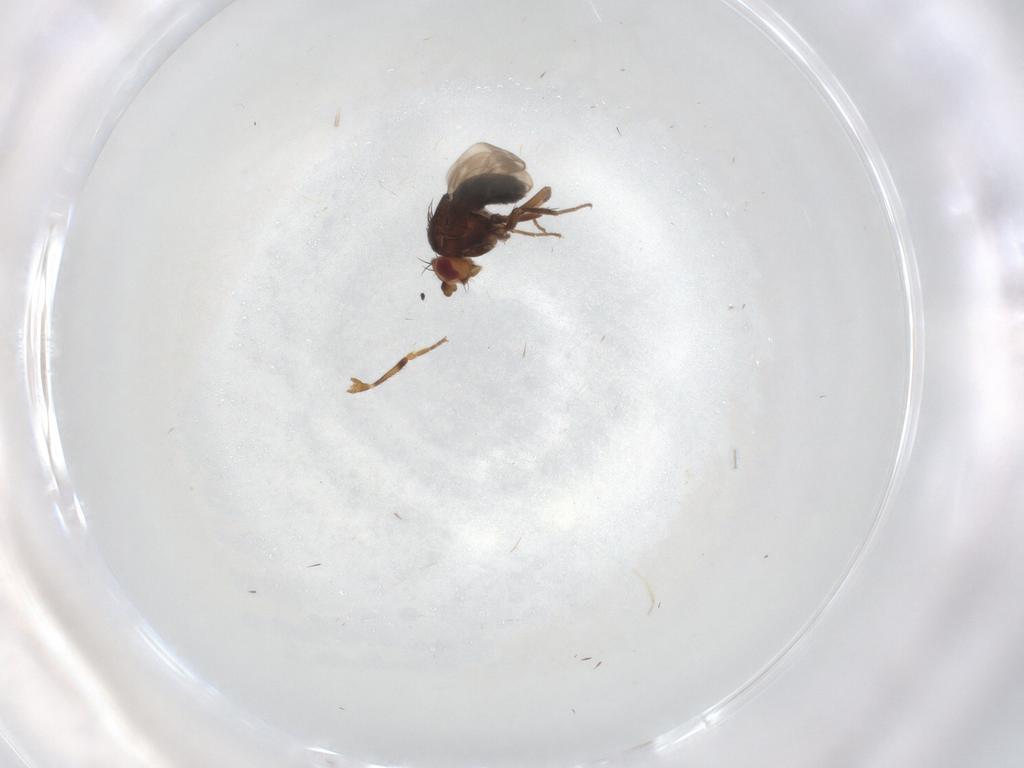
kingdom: Animalia
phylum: Arthropoda
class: Insecta
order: Diptera
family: Sphaeroceridae
